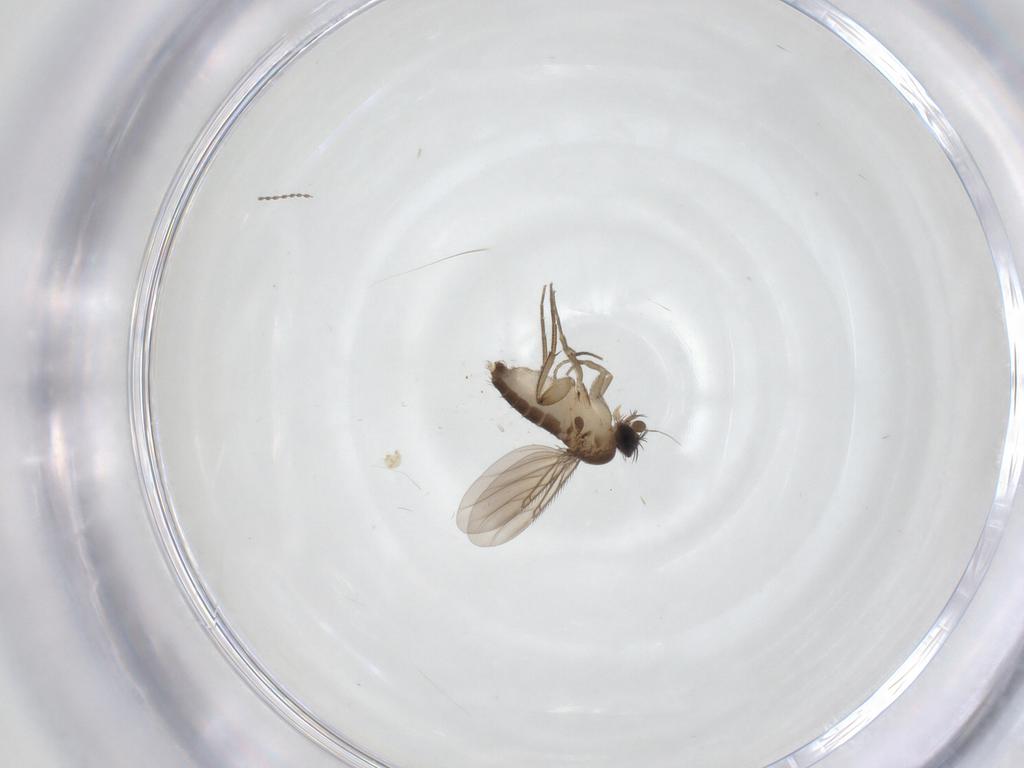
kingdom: Animalia
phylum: Arthropoda
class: Insecta
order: Diptera
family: Phoridae
